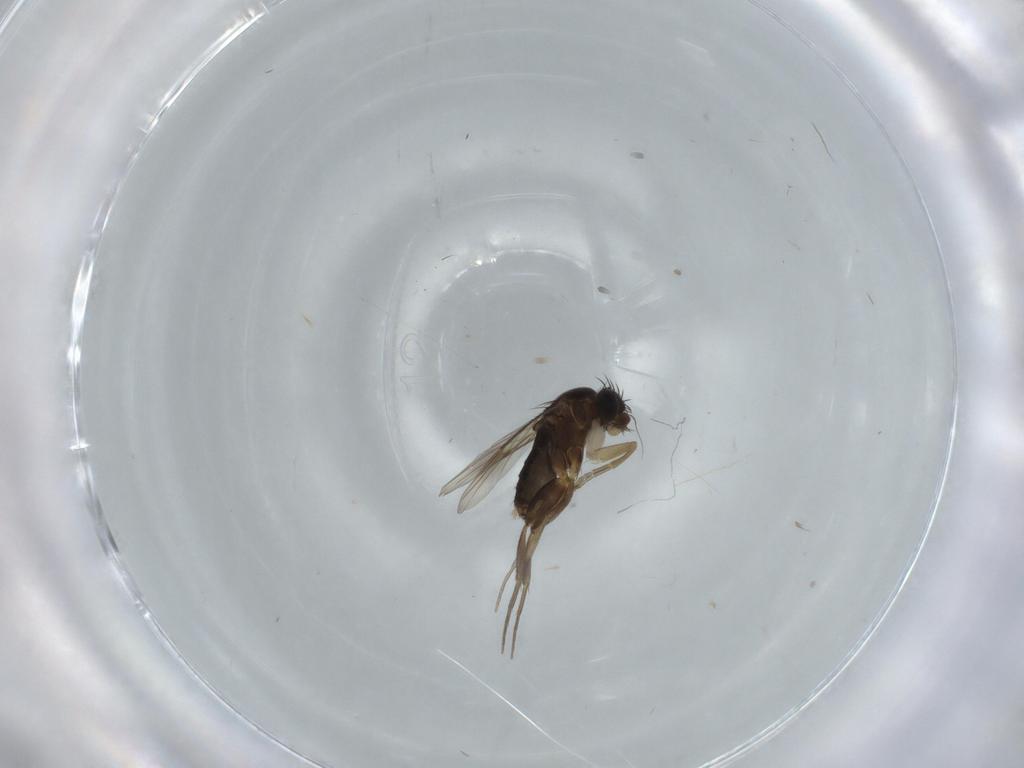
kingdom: Animalia
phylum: Arthropoda
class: Insecta
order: Diptera
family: Phoridae
